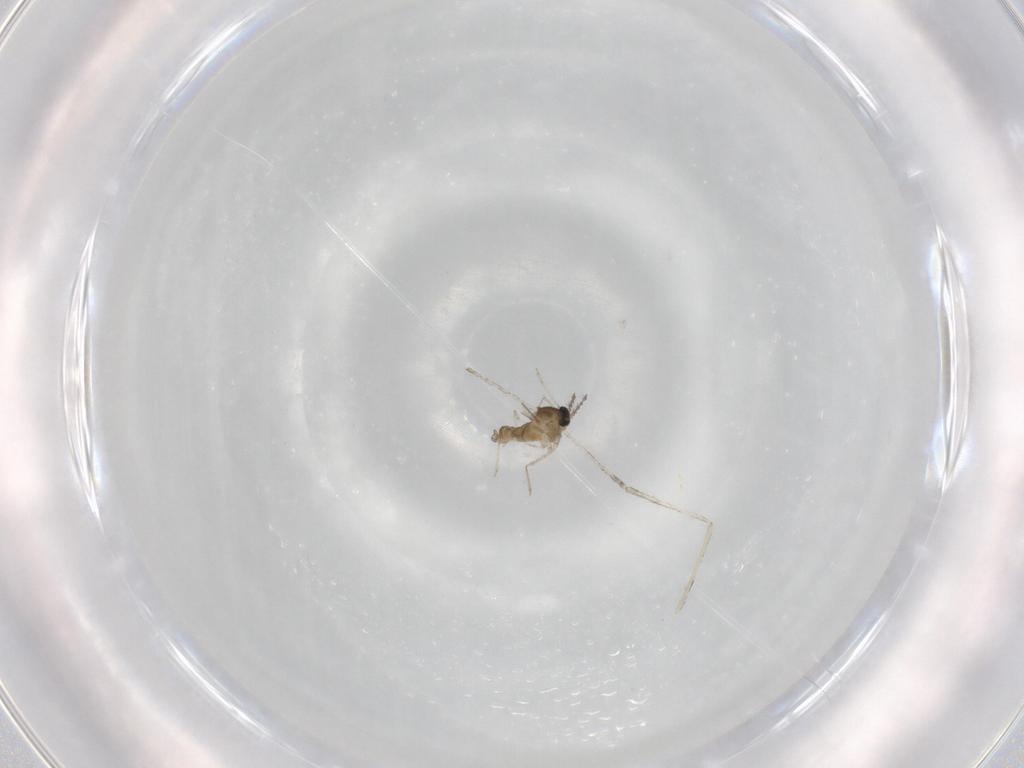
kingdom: Animalia
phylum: Arthropoda
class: Insecta
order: Diptera
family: Cecidomyiidae
